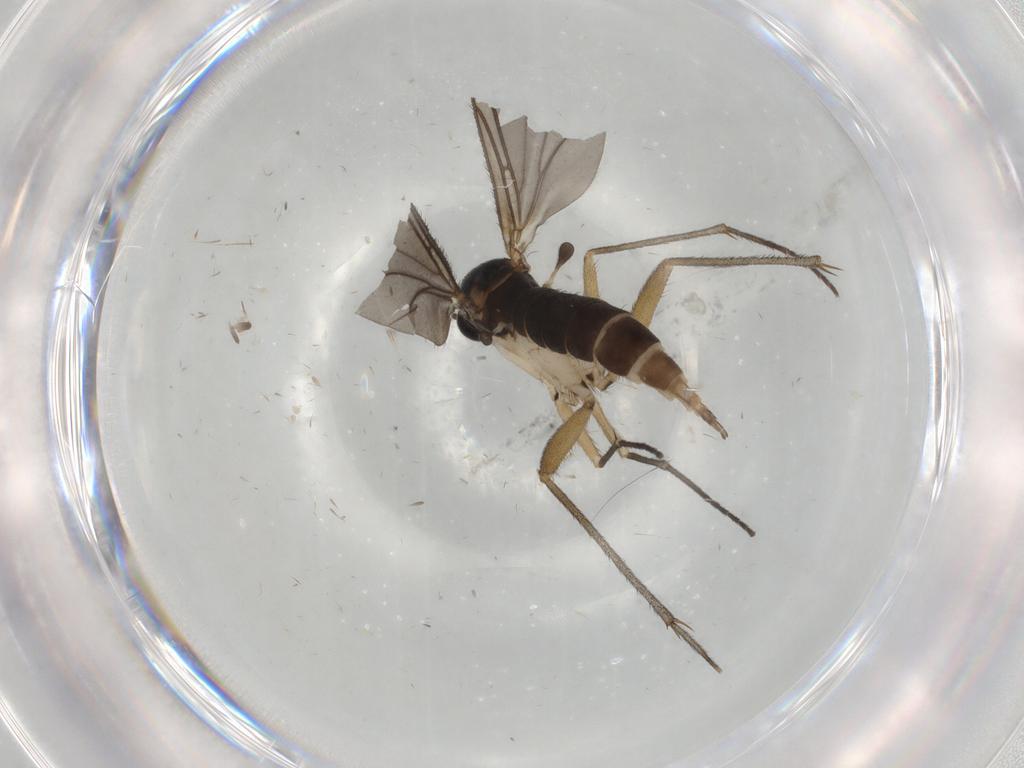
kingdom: Animalia
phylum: Arthropoda
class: Insecta
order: Diptera
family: Sciaridae
